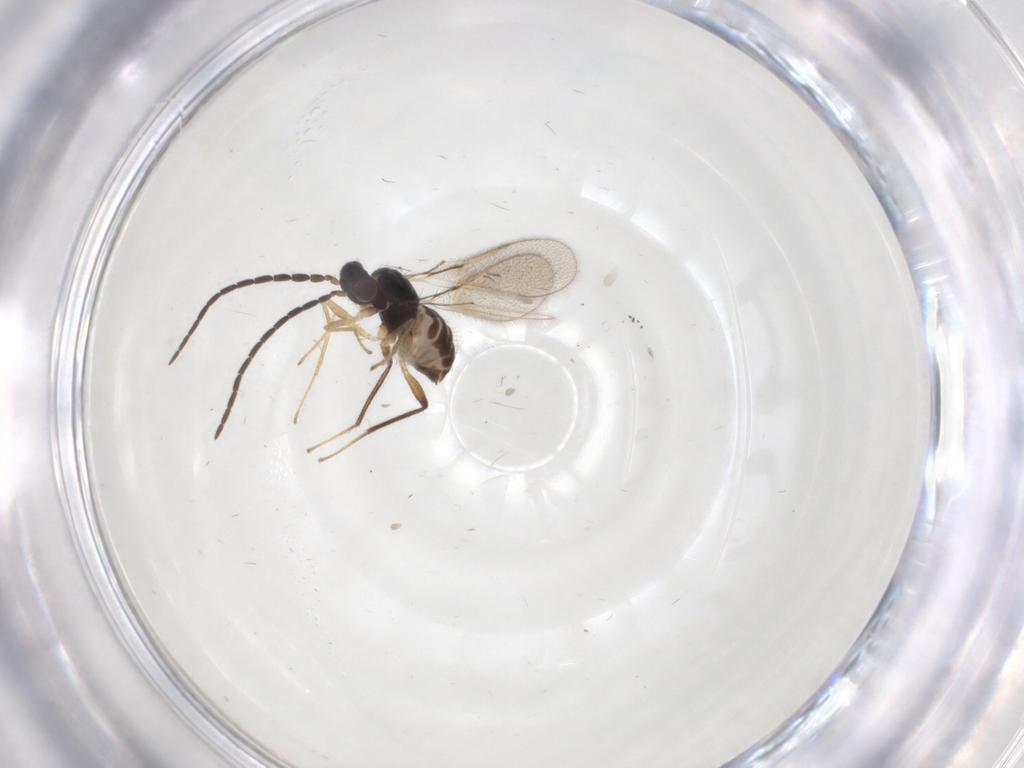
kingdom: Animalia
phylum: Arthropoda
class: Insecta
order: Hymenoptera
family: Mymaridae
